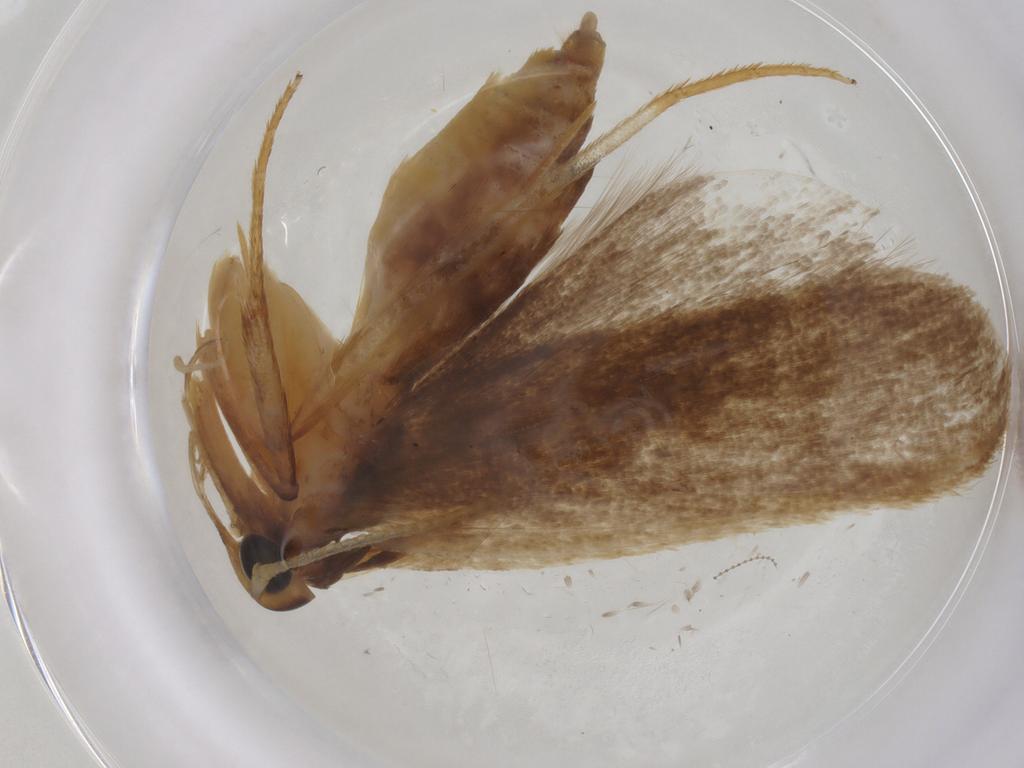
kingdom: Animalia
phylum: Arthropoda
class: Insecta
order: Lepidoptera
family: Lecithoceridae
